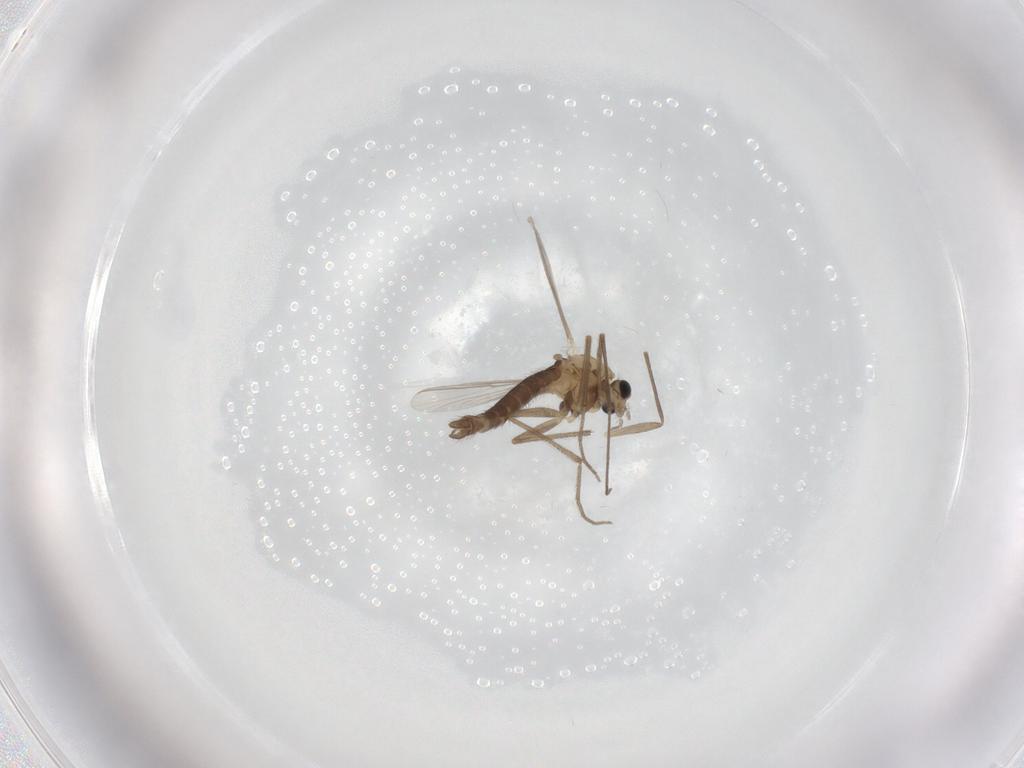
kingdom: Animalia
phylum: Arthropoda
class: Insecta
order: Diptera
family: Chironomidae
